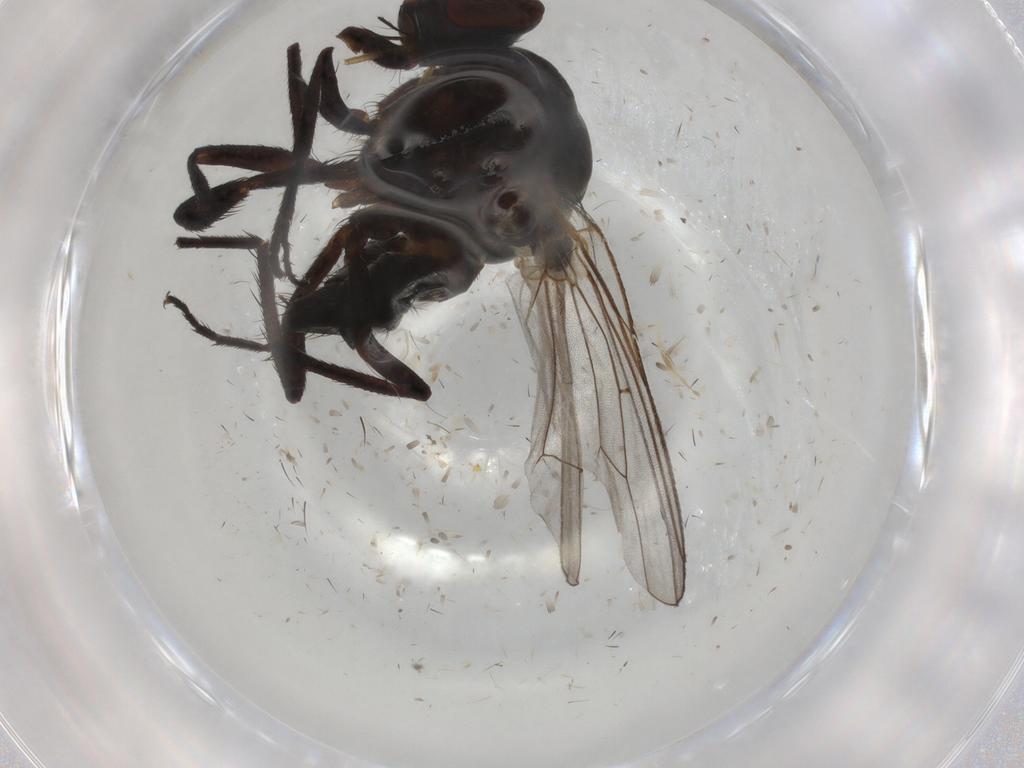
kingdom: Animalia
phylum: Arthropoda
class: Insecta
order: Diptera
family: Anthomyiidae
